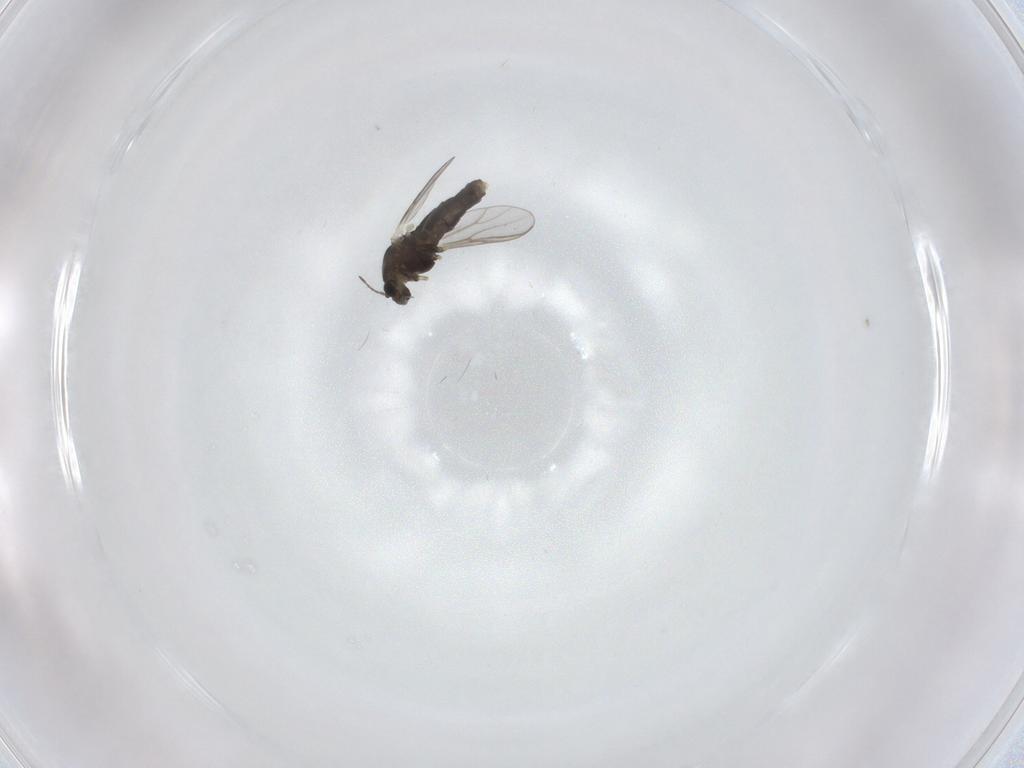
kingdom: Animalia
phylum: Arthropoda
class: Insecta
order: Diptera
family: Chironomidae
